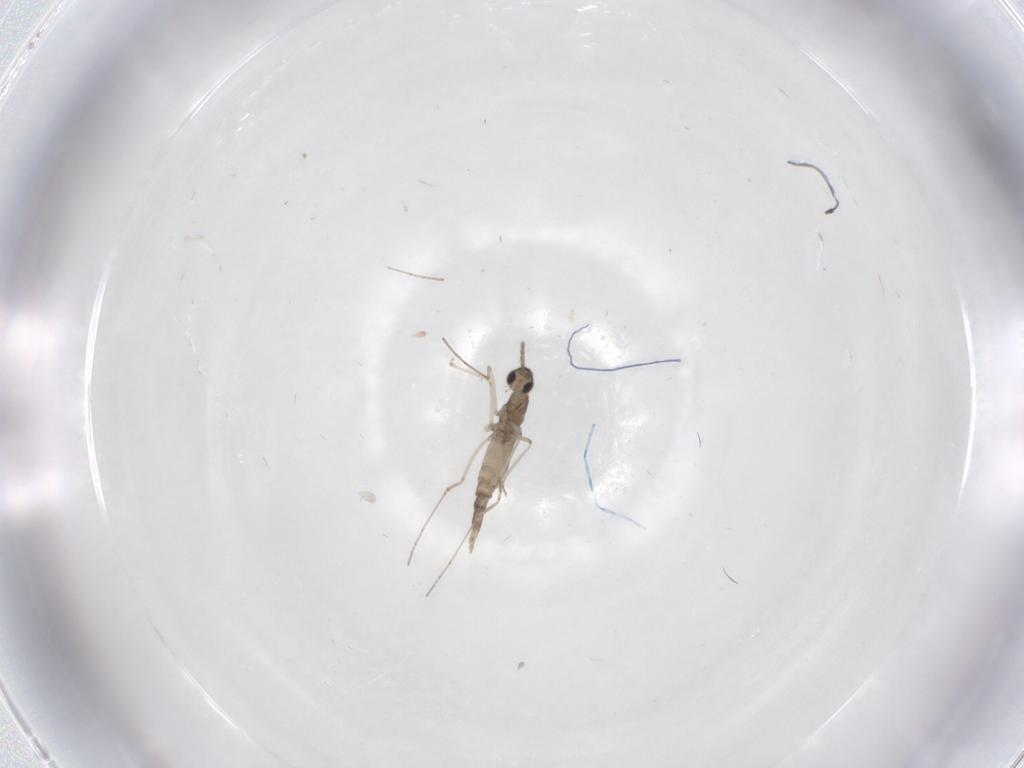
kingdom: Animalia
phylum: Arthropoda
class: Insecta
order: Diptera
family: Cecidomyiidae
